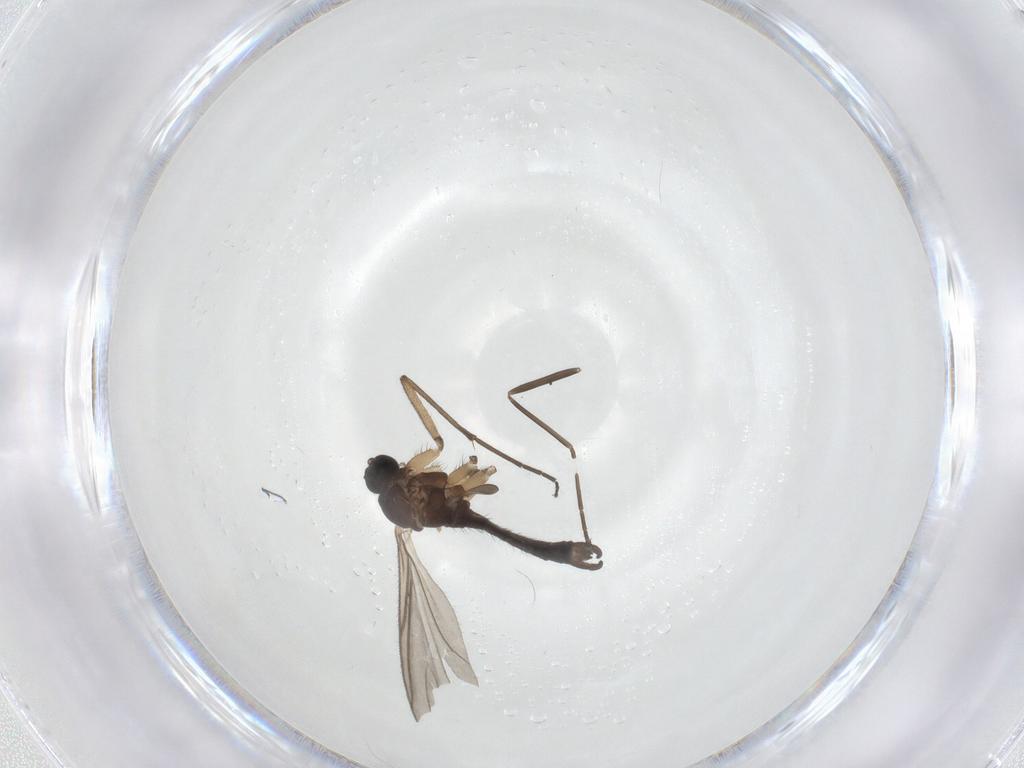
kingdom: Animalia
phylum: Arthropoda
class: Insecta
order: Diptera
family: Sciaridae
